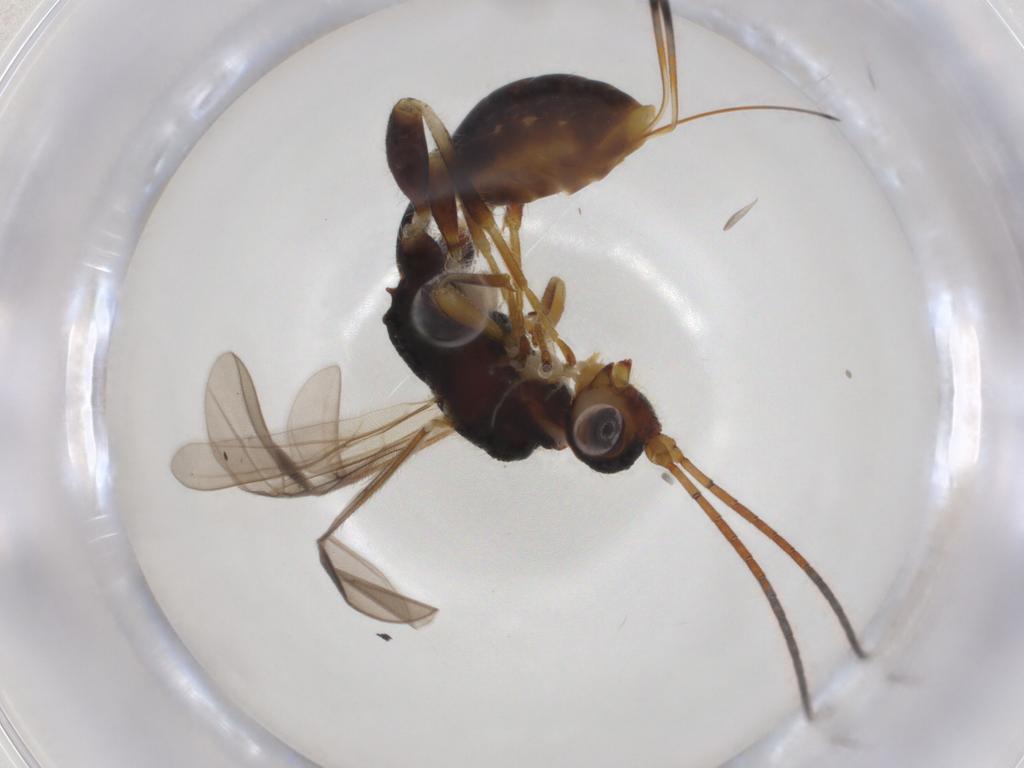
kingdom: Animalia
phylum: Arthropoda
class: Insecta
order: Hymenoptera
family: Braconidae
